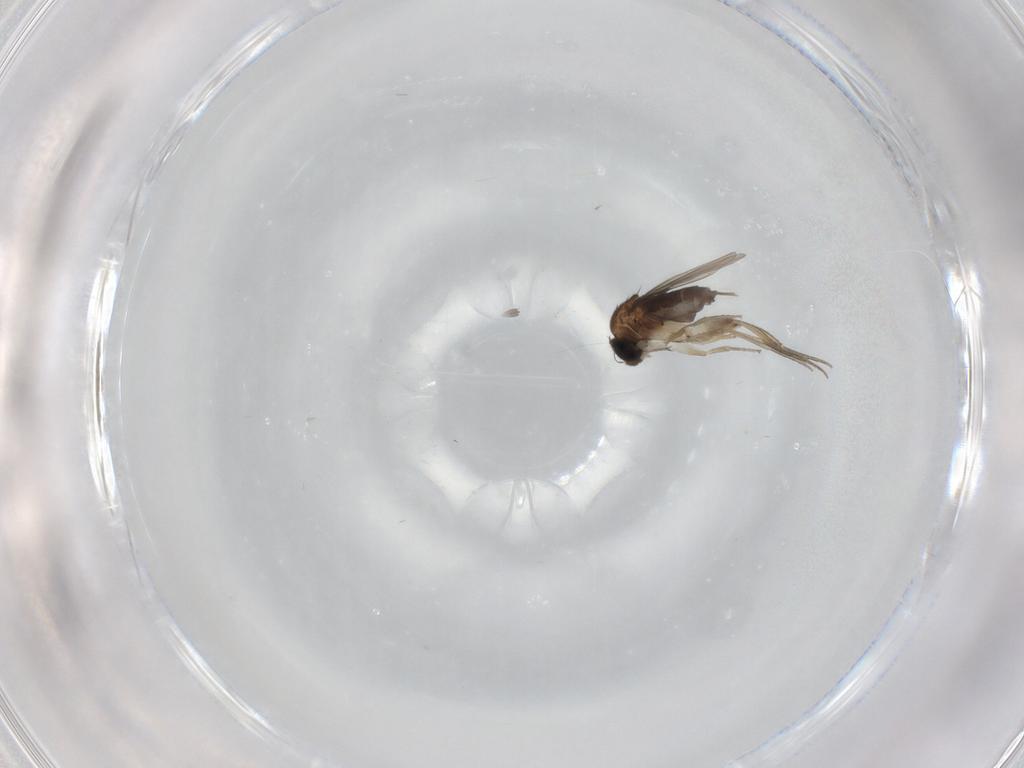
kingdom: Animalia
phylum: Arthropoda
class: Insecta
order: Diptera
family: Phoridae
